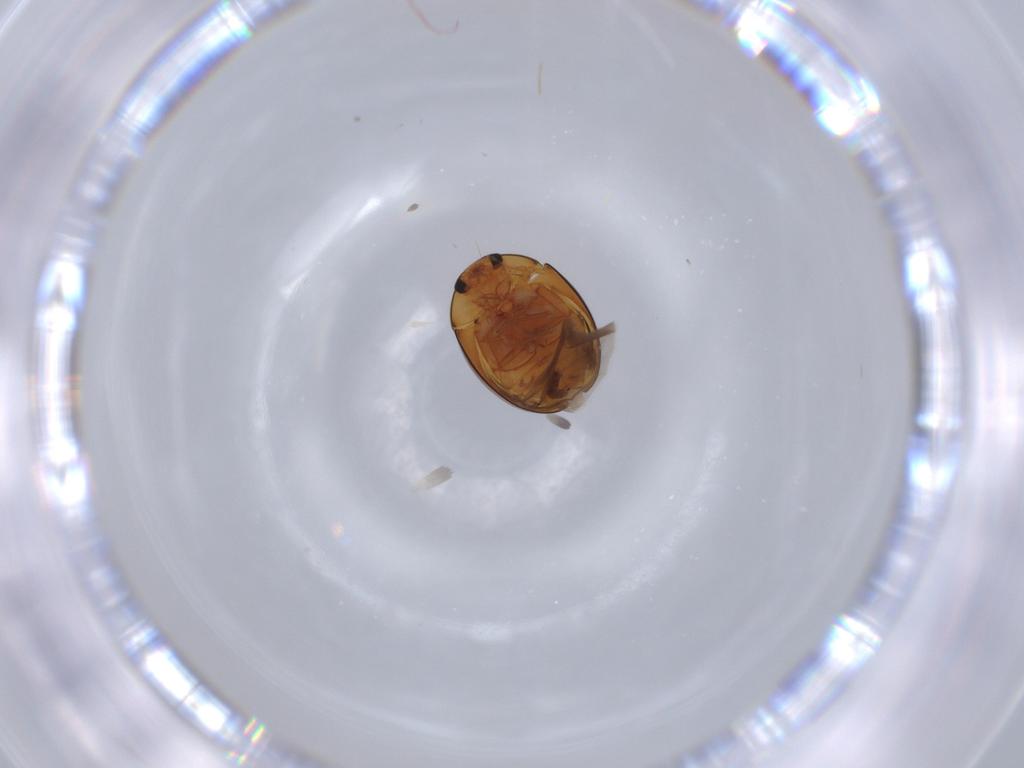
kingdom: Animalia
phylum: Arthropoda
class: Insecta
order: Coleoptera
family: Phalacridae
